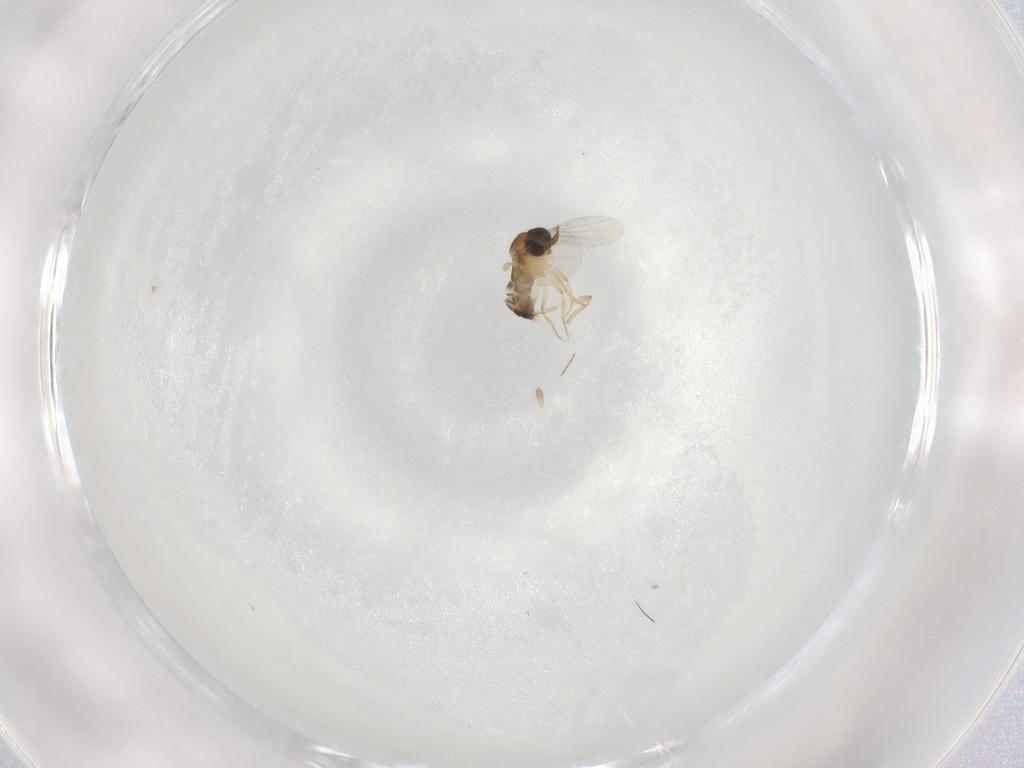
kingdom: Animalia
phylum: Arthropoda
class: Insecta
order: Diptera
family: Phoridae
